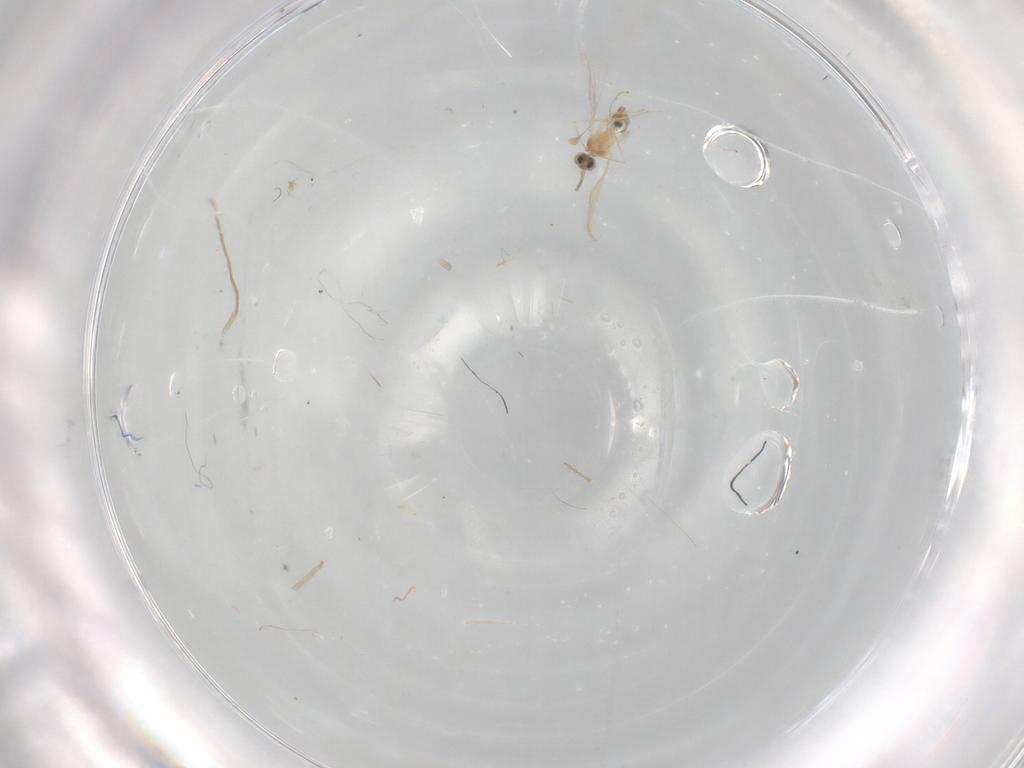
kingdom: Animalia
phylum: Arthropoda
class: Insecta
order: Diptera
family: Cecidomyiidae
